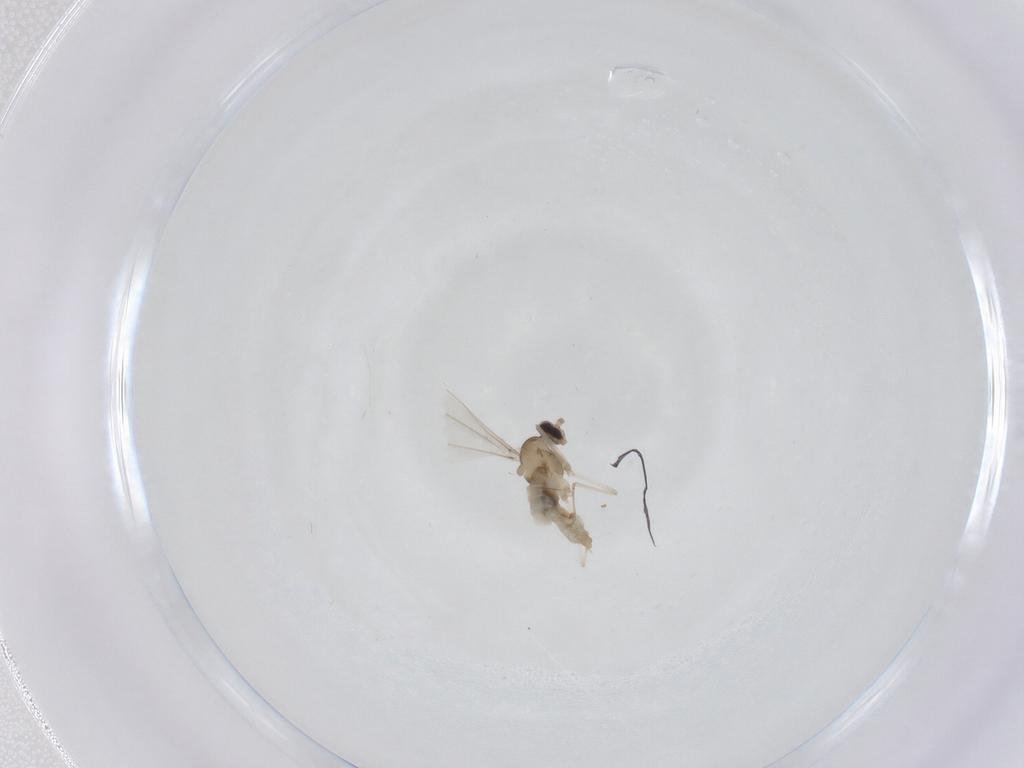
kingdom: Animalia
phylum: Arthropoda
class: Insecta
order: Diptera
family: Cecidomyiidae
